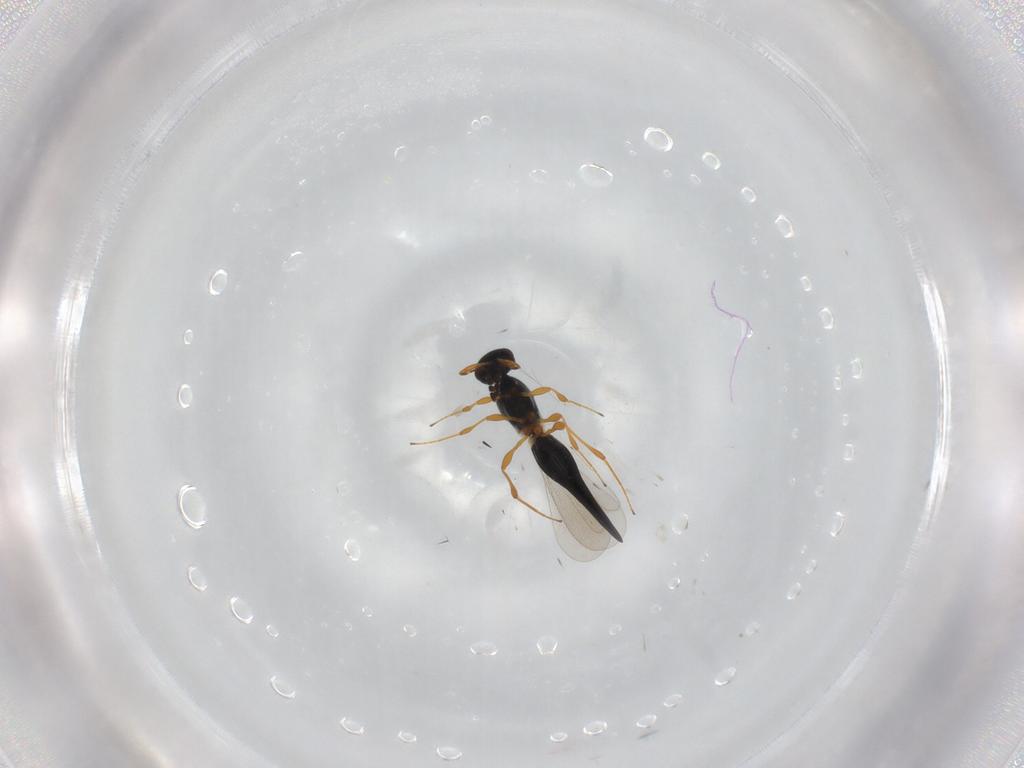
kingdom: Animalia
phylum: Arthropoda
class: Insecta
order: Hymenoptera
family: Platygastridae
